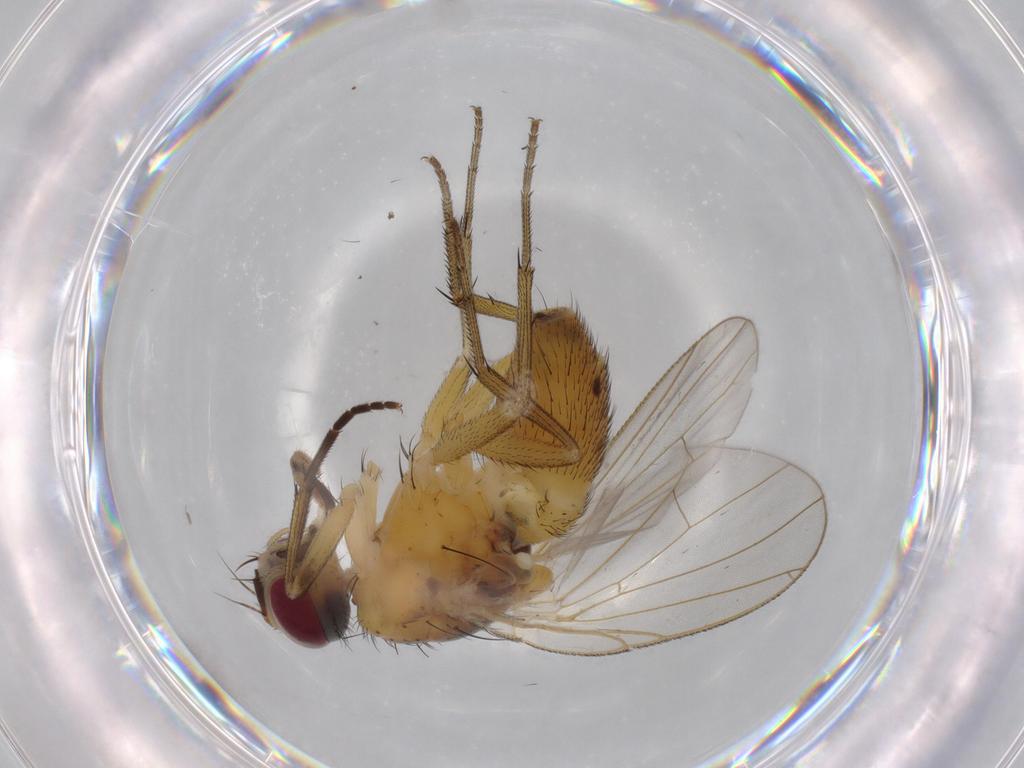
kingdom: Animalia
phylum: Arthropoda
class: Insecta
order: Diptera
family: Muscidae
